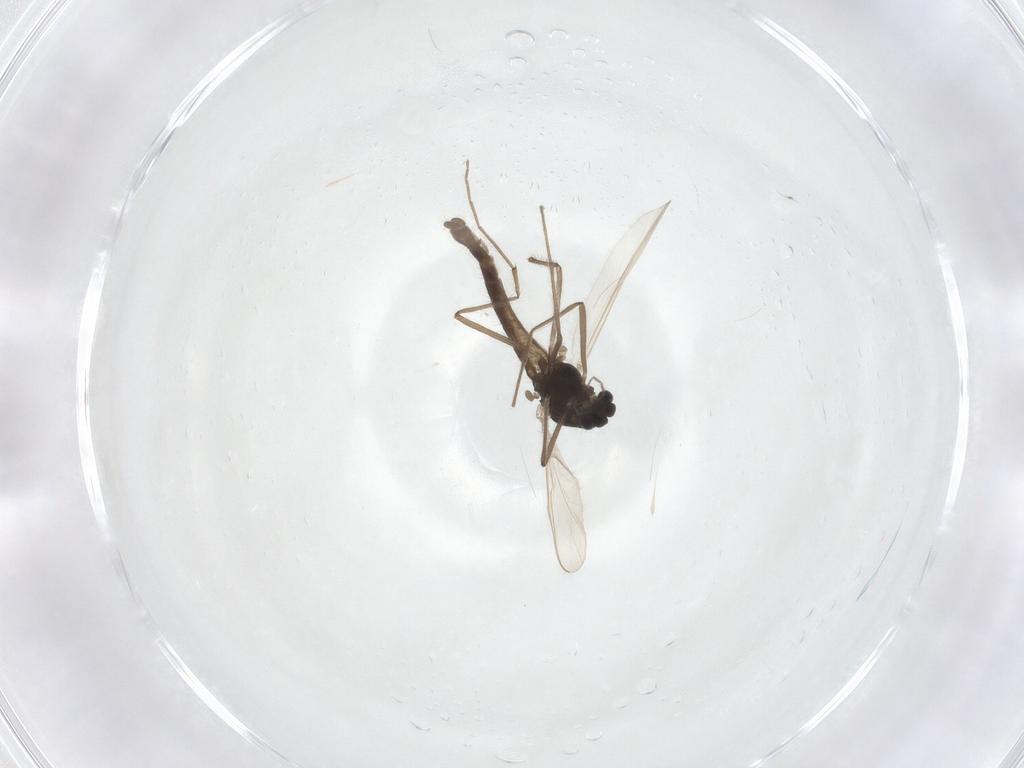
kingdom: Animalia
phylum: Arthropoda
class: Insecta
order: Diptera
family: Chironomidae
